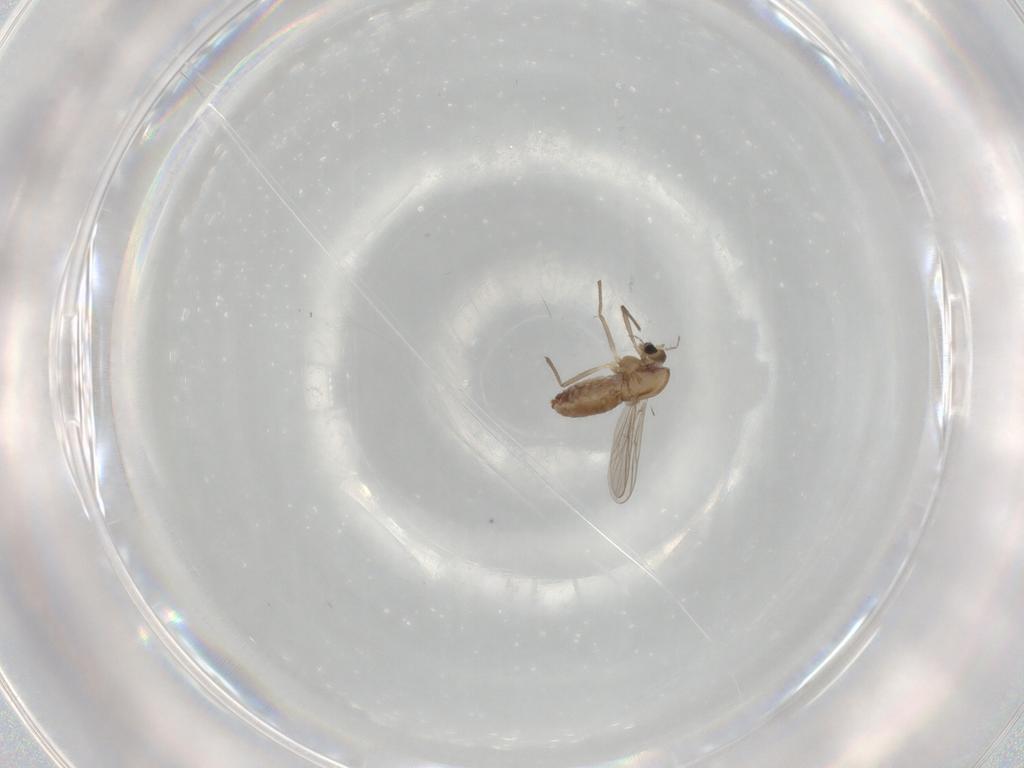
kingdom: Animalia
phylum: Arthropoda
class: Insecta
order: Diptera
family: Chironomidae
